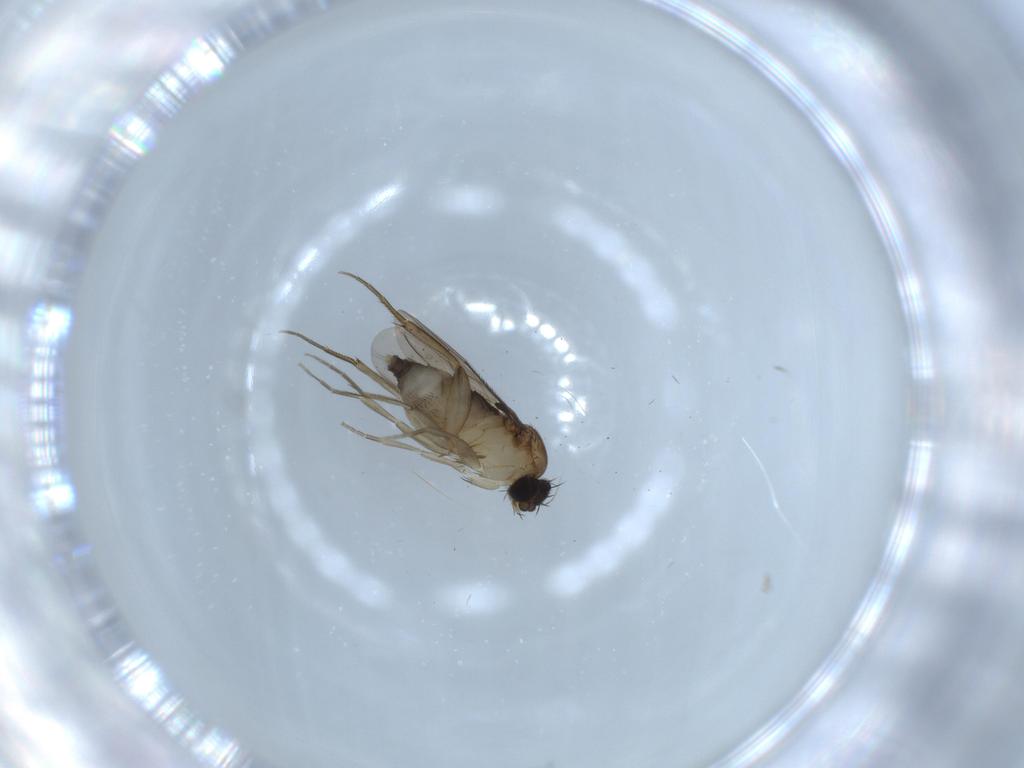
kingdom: Animalia
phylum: Arthropoda
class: Insecta
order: Diptera
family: Phoridae
